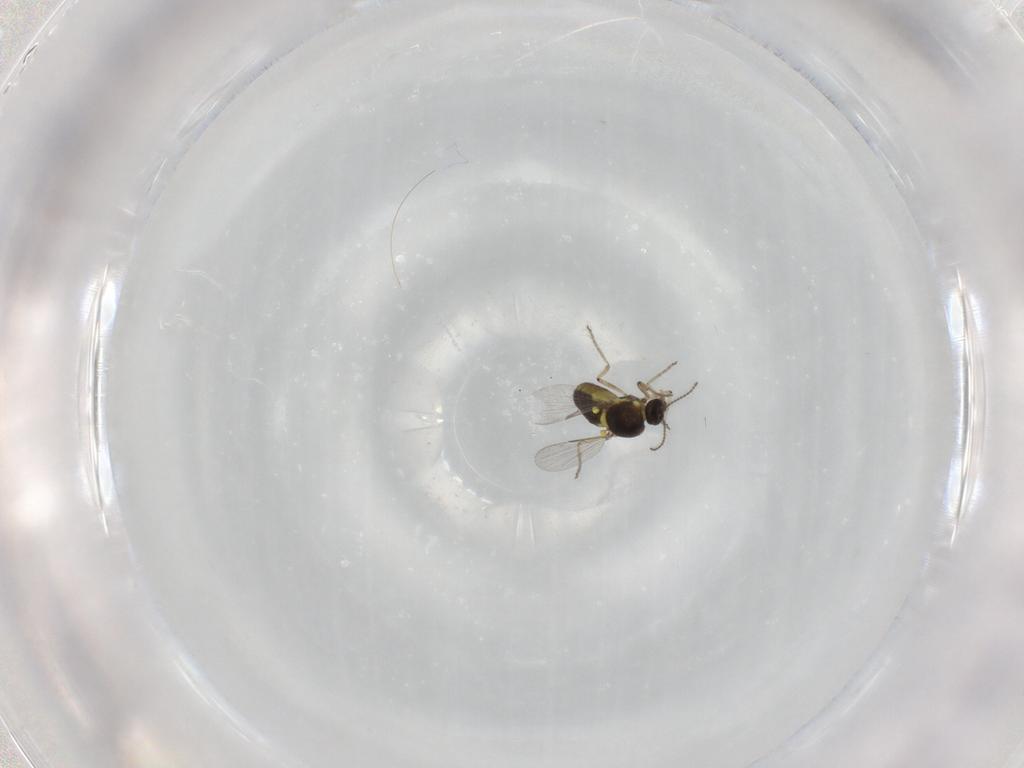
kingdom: Animalia
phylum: Arthropoda
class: Insecta
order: Diptera
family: Ceratopogonidae
